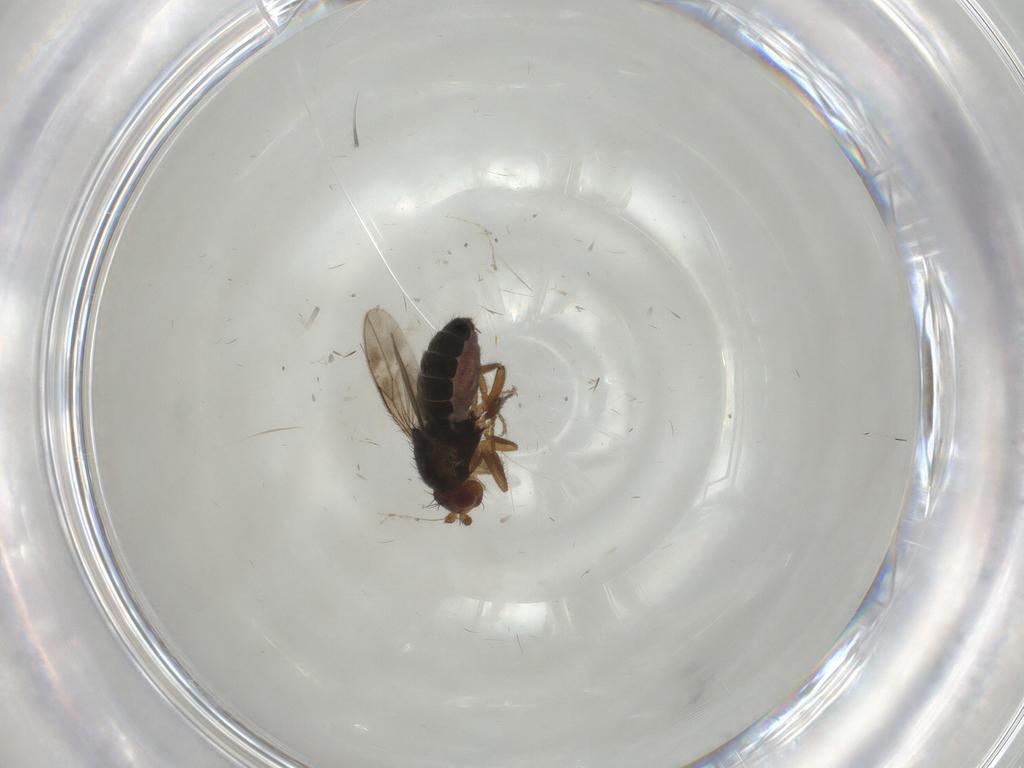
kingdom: Animalia
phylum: Arthropoda
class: Insecta
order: Diptera
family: Sphaeroceridae
